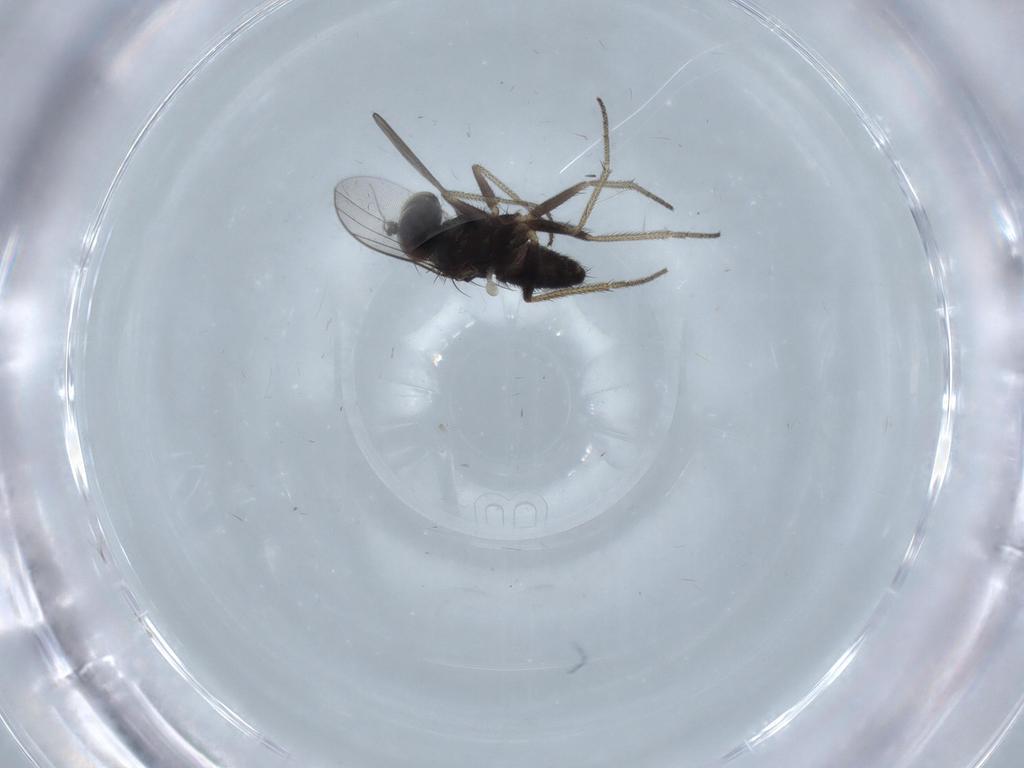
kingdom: Animalia
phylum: Arthropoda
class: Insecta
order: Diptera
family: Dolichopodidae
